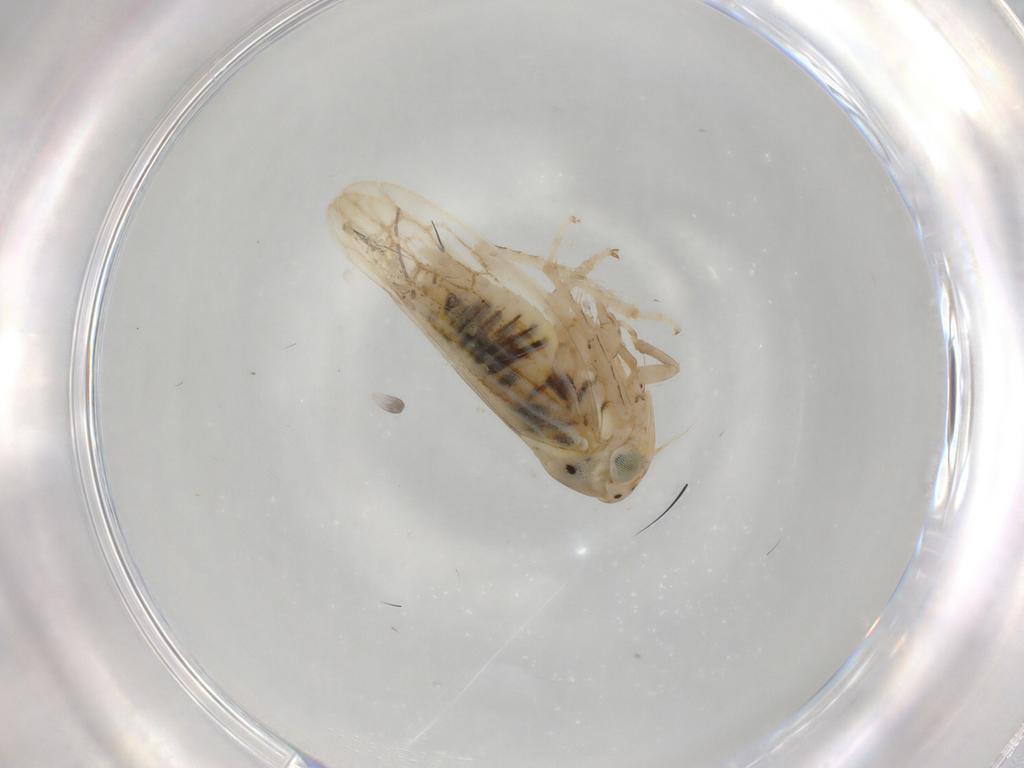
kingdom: Animalia
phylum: Arthropoda
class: Insecta
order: Hemiptera
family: Cicadellidae
